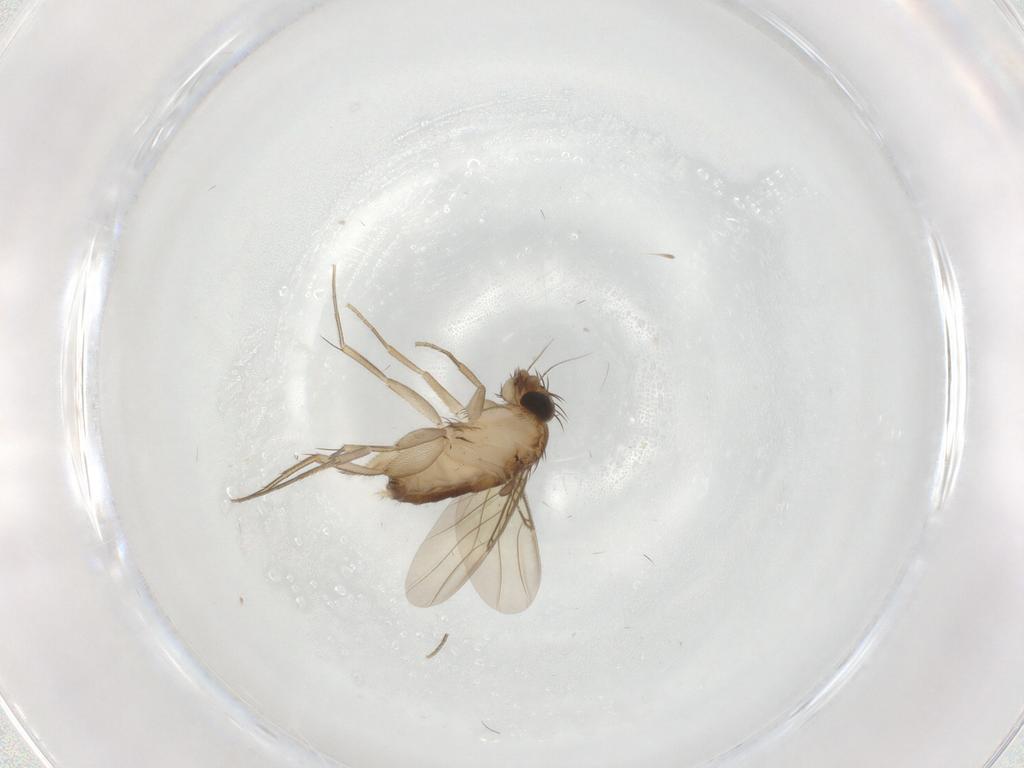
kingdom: Animalia
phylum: Arthropoda
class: Insecta
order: Diptera
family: Phoridae
